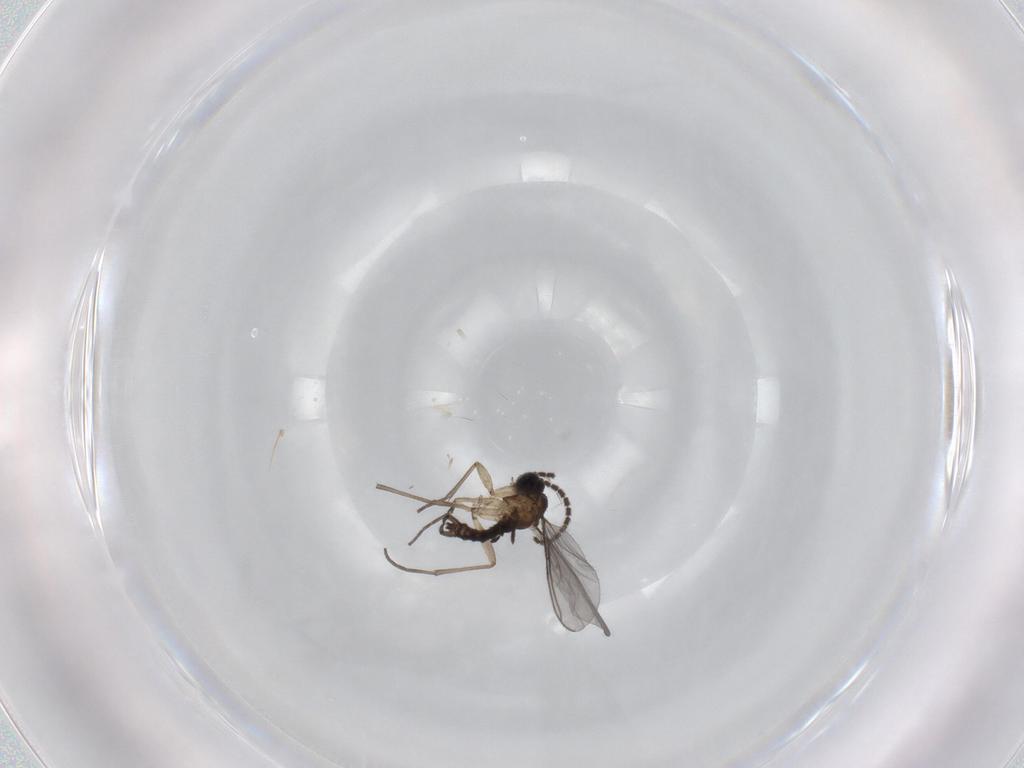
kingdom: Animalia
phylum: Arthropoda
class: Insecta
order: Diptera
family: Sciaridae
